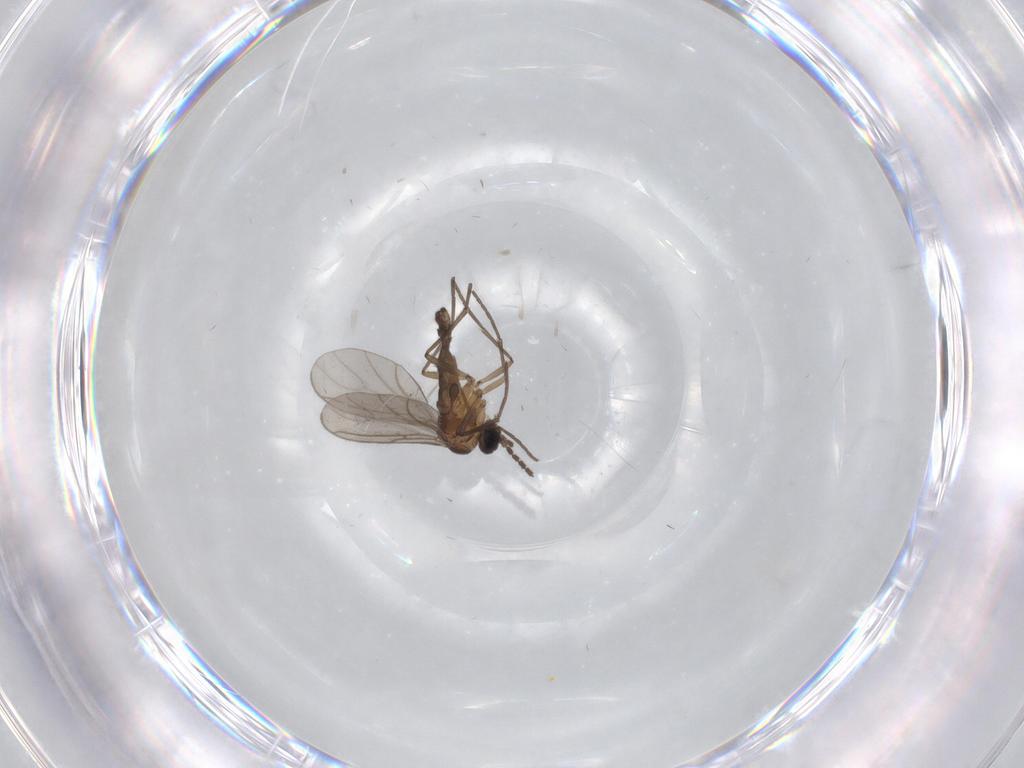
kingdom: Animalia
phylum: Arthropoda
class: Insecta
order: Diptera
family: Sciaridae
